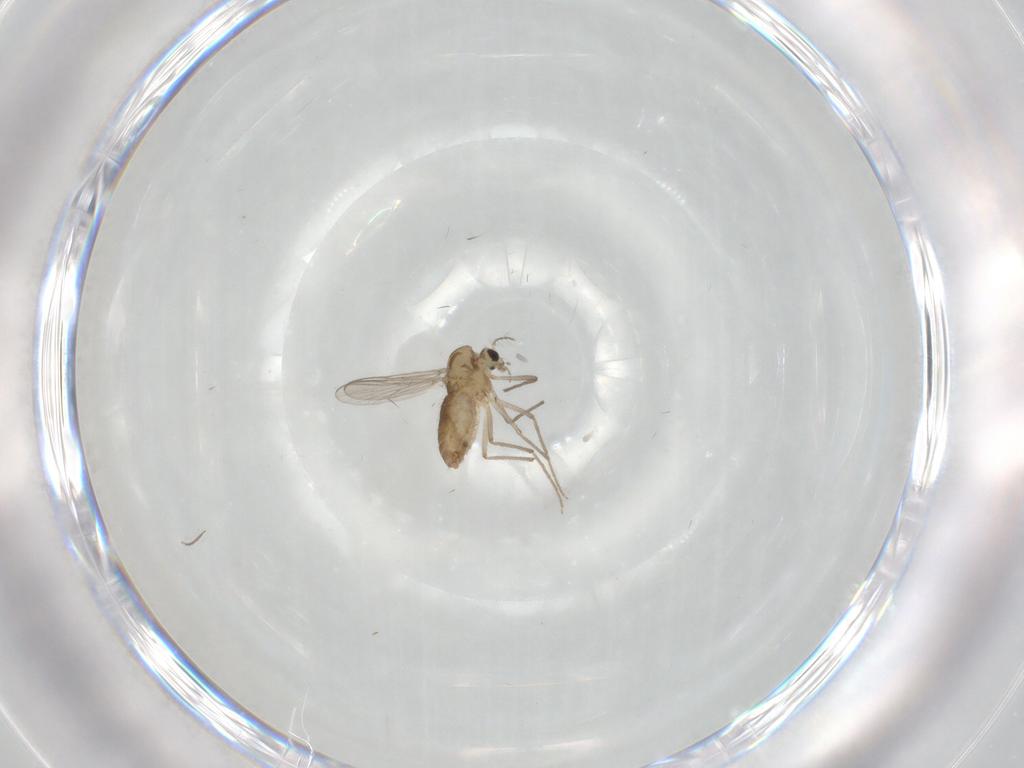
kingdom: Animalia
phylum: Arthropoda
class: Insecta
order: Diptera
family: Chironomidae
